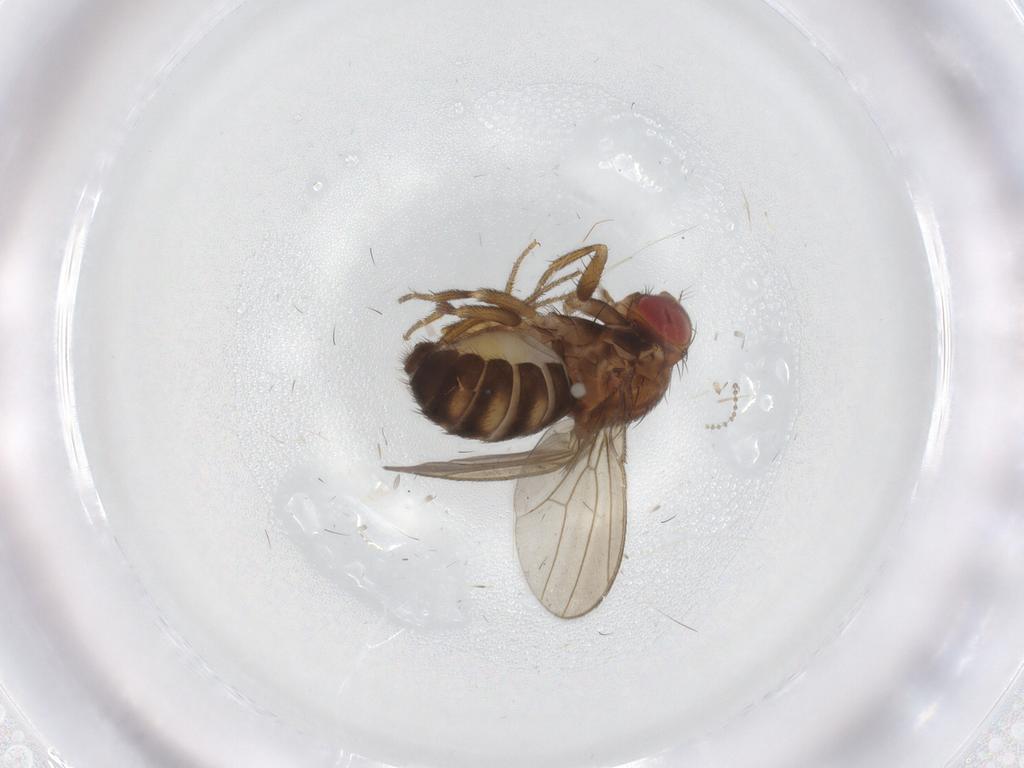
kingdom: Animalia
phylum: Arthropoda
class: Insecta
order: Diptera
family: Drosophilidae
